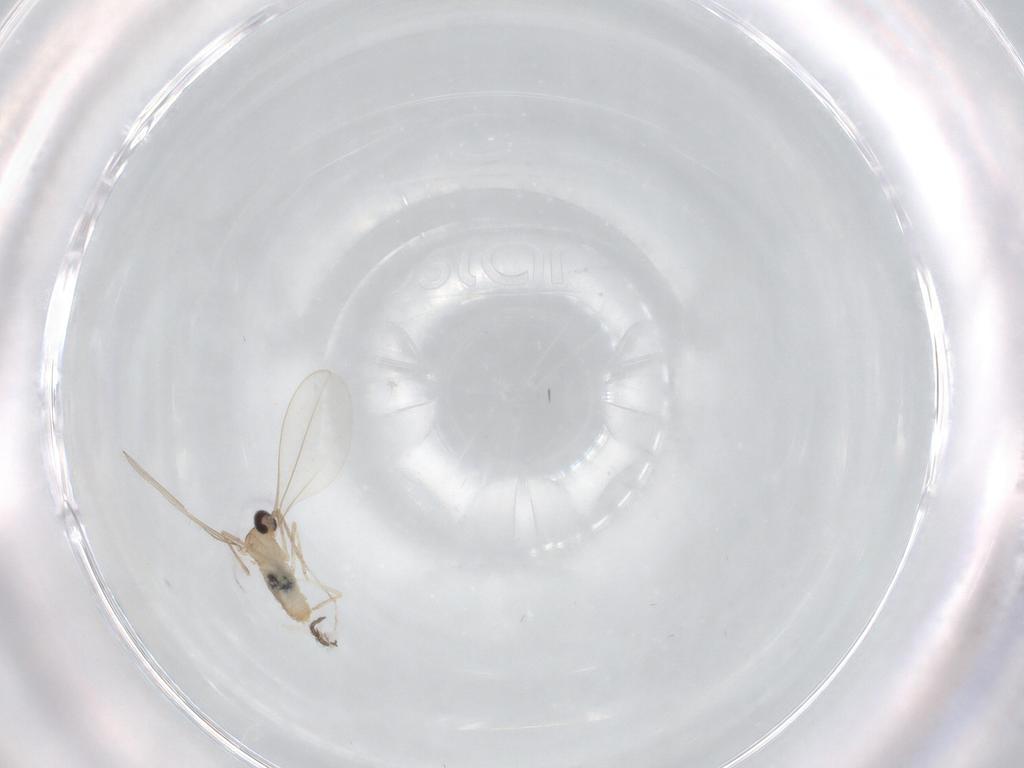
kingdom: Animalia
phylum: Arthropoda
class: Insecta
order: Diptera
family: Cecidomyiidae
